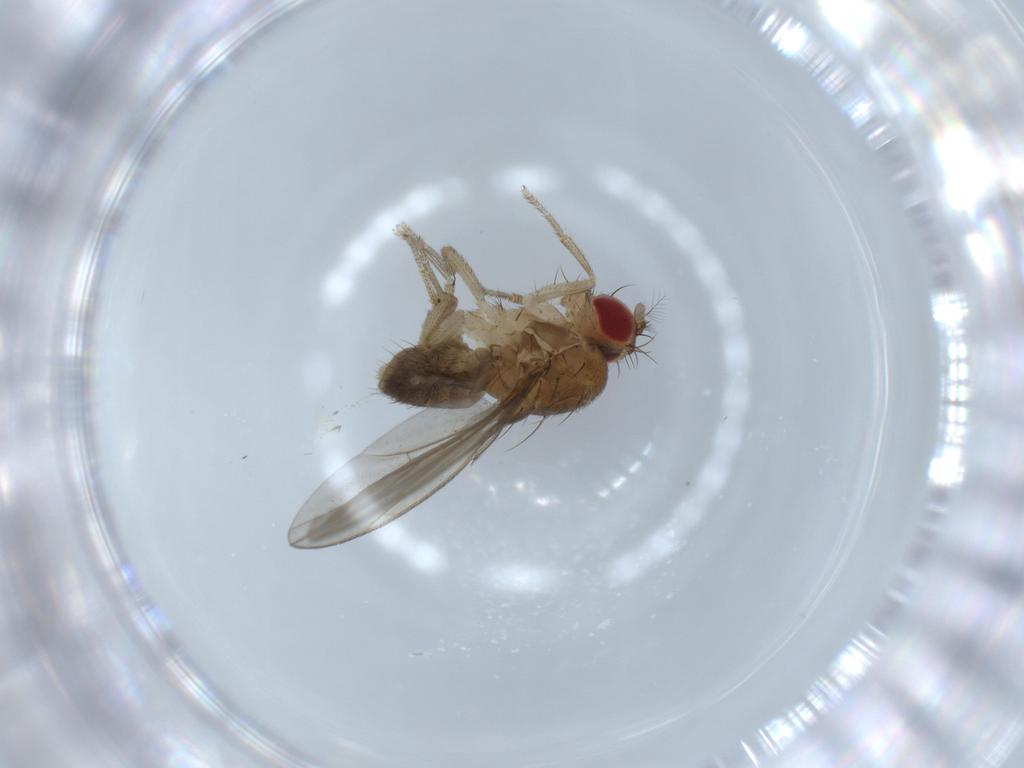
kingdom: Animalia
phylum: Arthropoda
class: Insecta
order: Diptera
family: Drosophilidae
